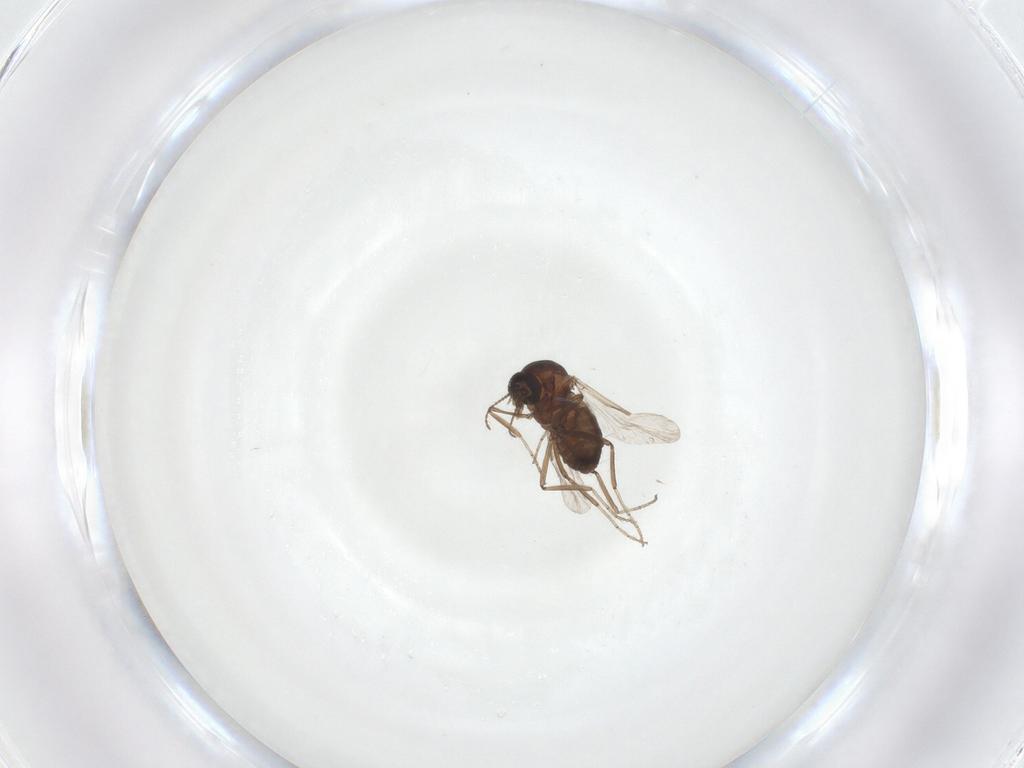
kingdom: Animalia
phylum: Arthropoda
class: Insecta
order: Diptera
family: Ceratopogonidae
